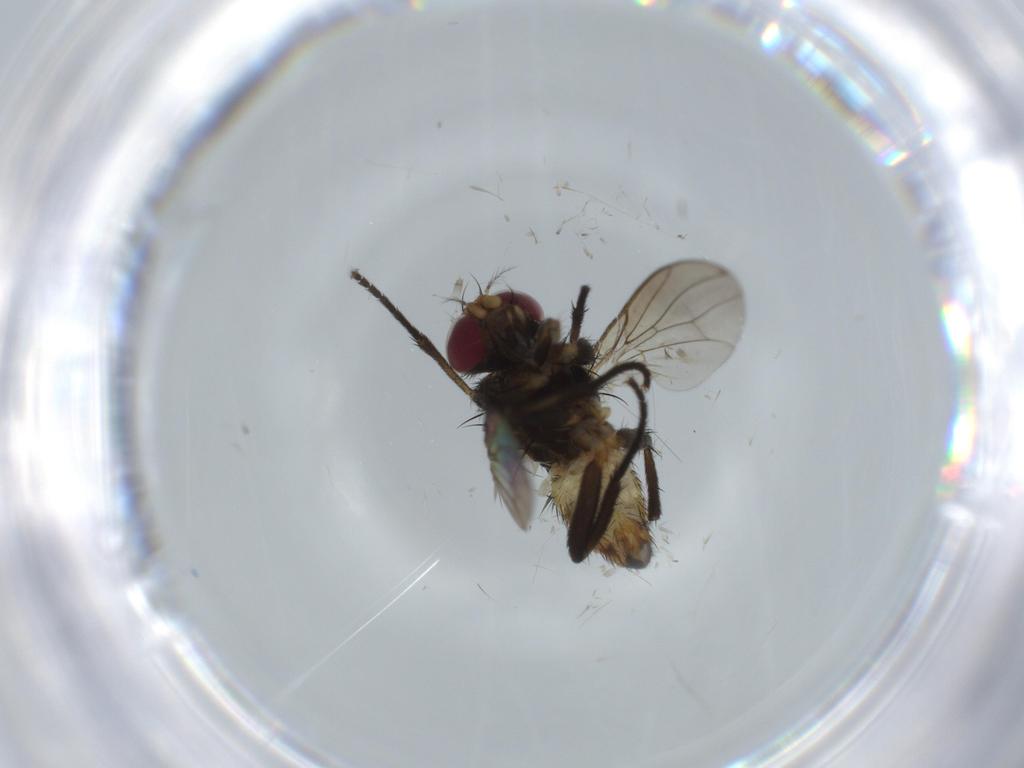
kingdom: Animalia
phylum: Arthropoda
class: Insecta
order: Diptera
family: Anthomyiidae
